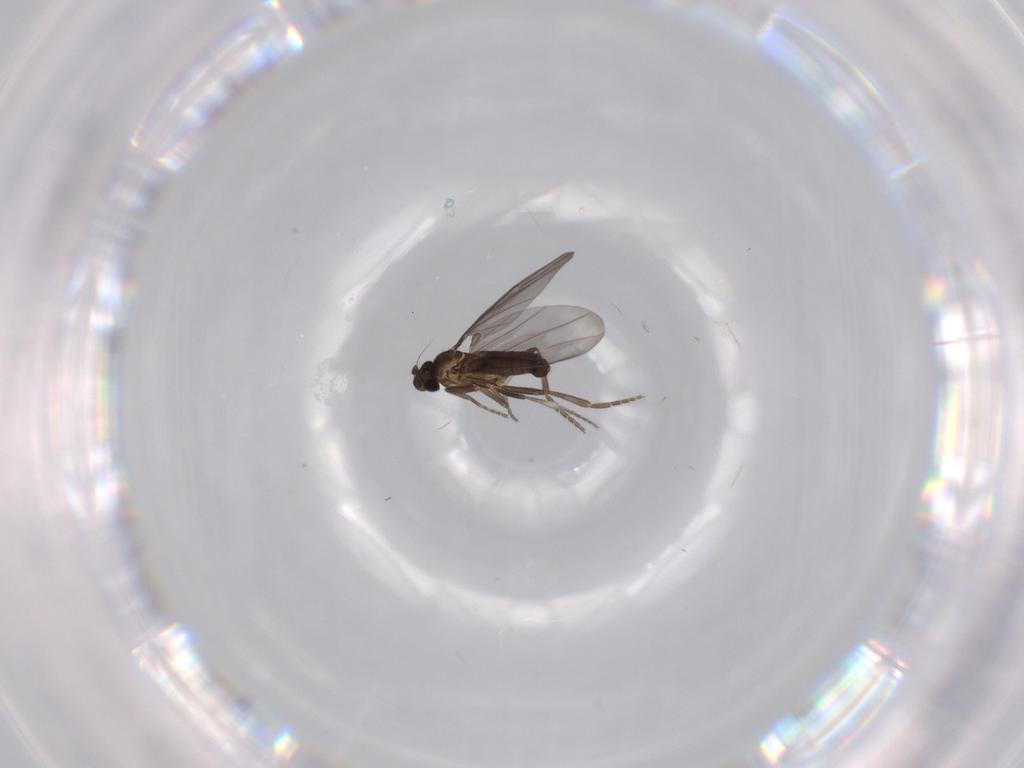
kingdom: Animalia
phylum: Arthropoda
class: Insecta
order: Diptera
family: Phoridae
